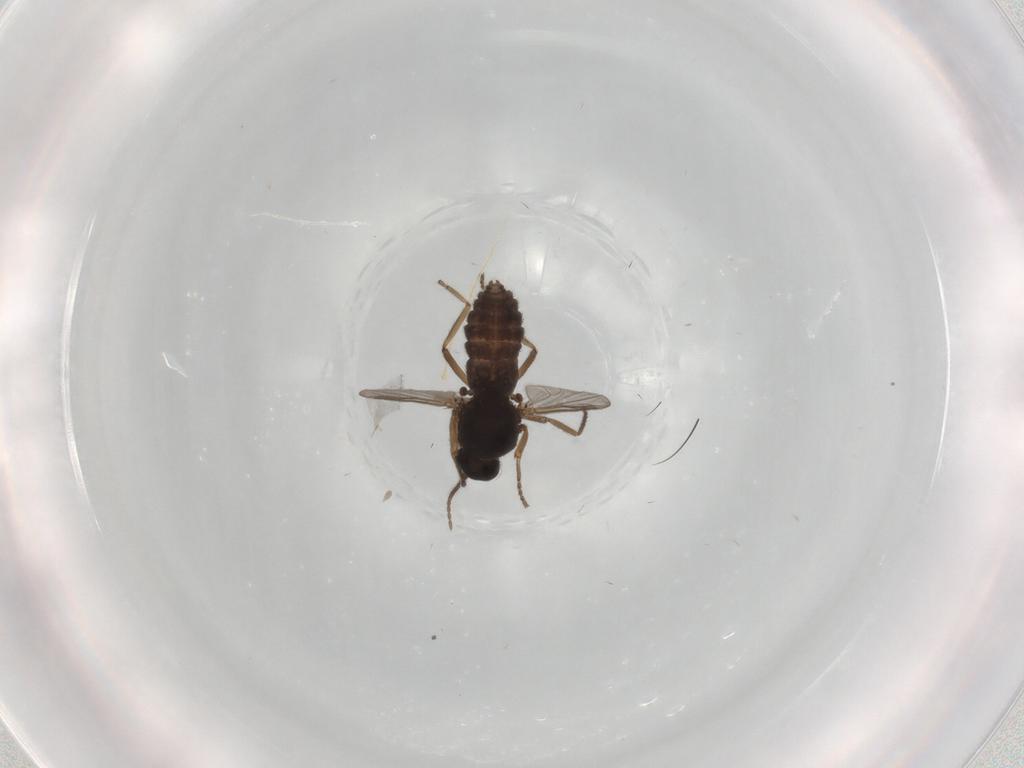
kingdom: Animalia
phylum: Arthropoda
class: Insecta
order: Diptera
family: Ceratopogonidae
